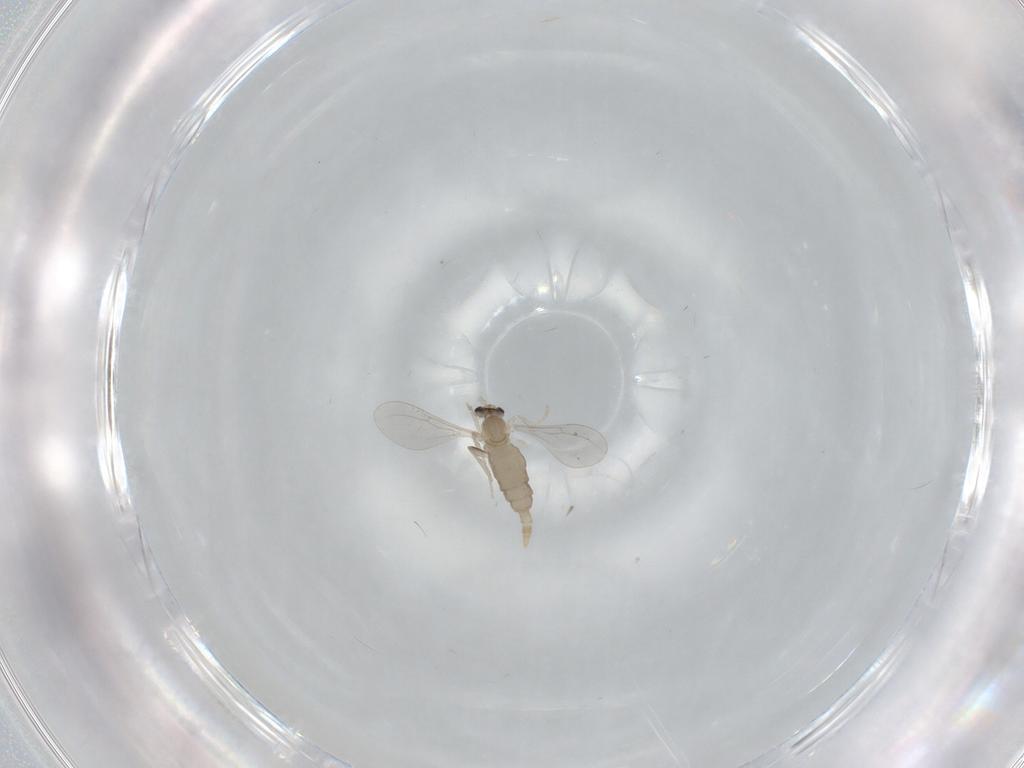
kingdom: Animalia
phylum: Arthropoda
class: Insecta
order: Diptera
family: Cecidomyiidae
